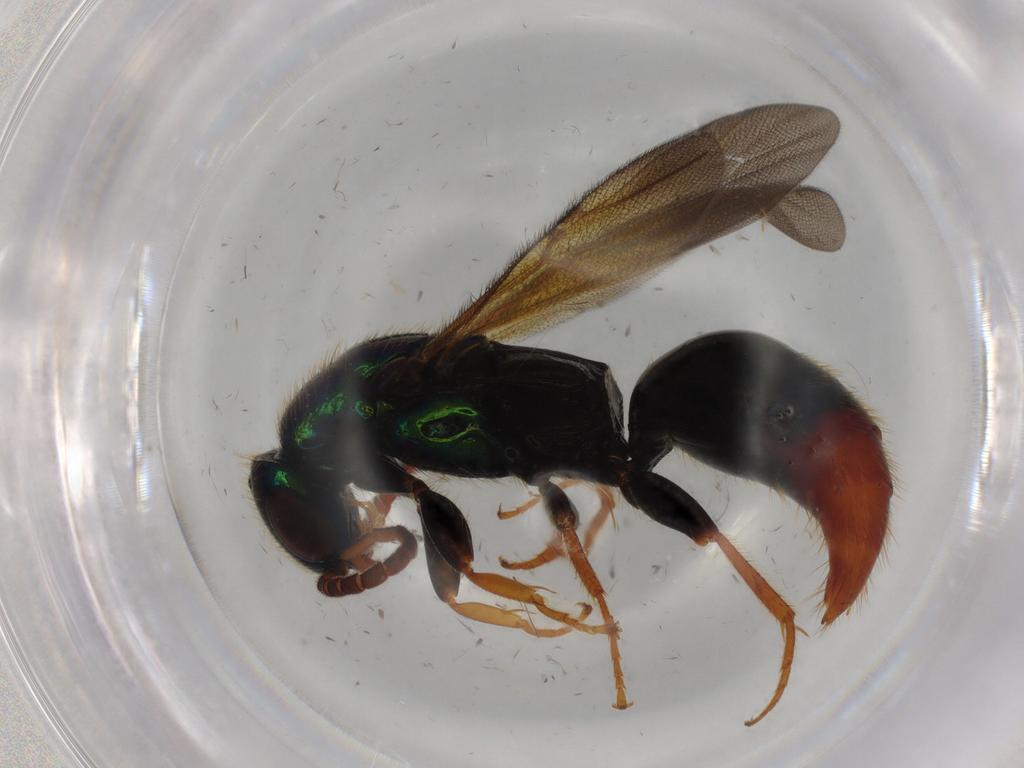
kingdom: Animalia
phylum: Arthropoda
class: Insecta
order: Hymenoptera
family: Bethylidae
